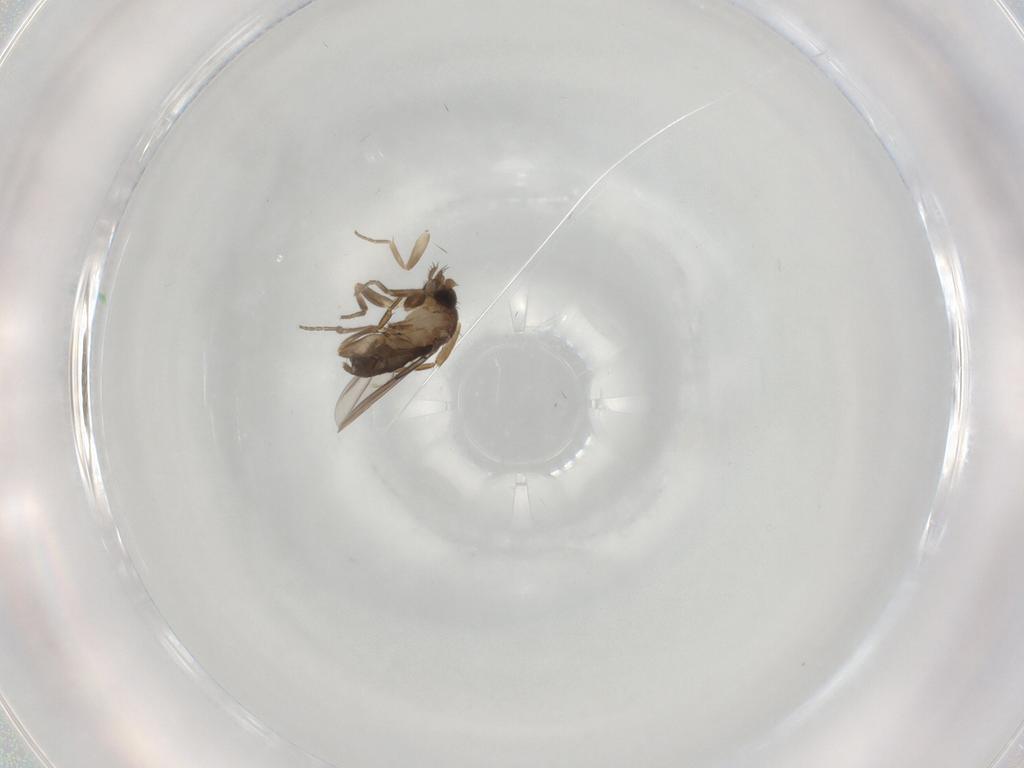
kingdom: Animalia
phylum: Arthropoda
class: Insecta
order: Diptera
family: Phoridae
